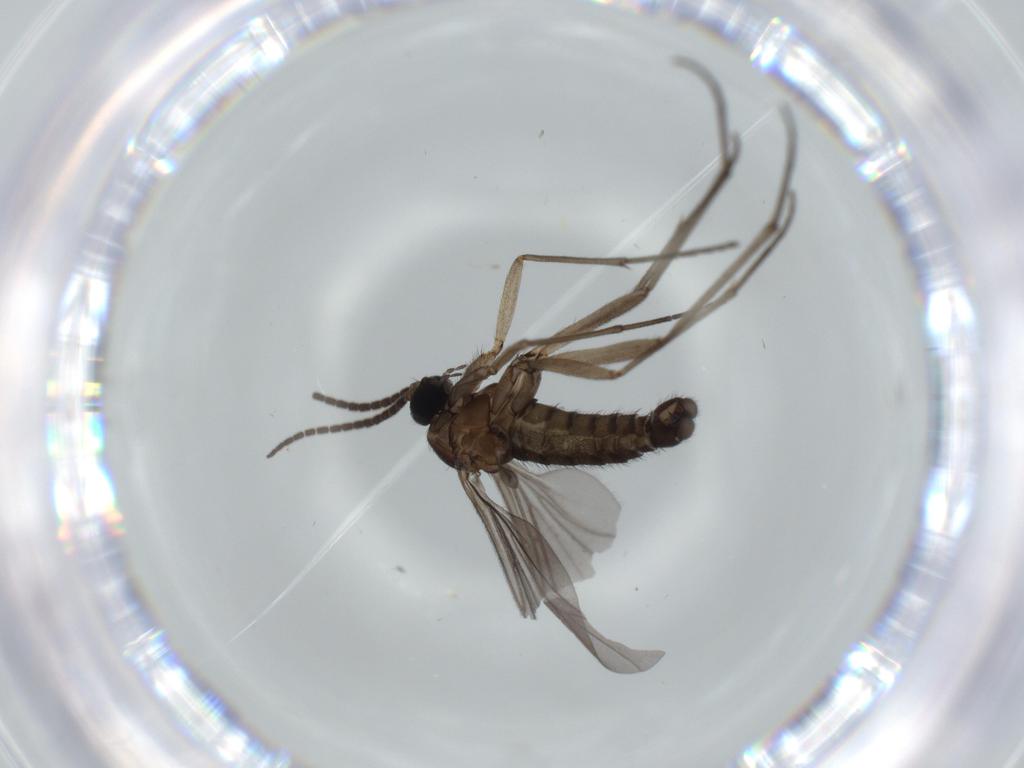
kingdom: Animalia
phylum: Arthropoda
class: Insecta
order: Diptera
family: Sciaridae
